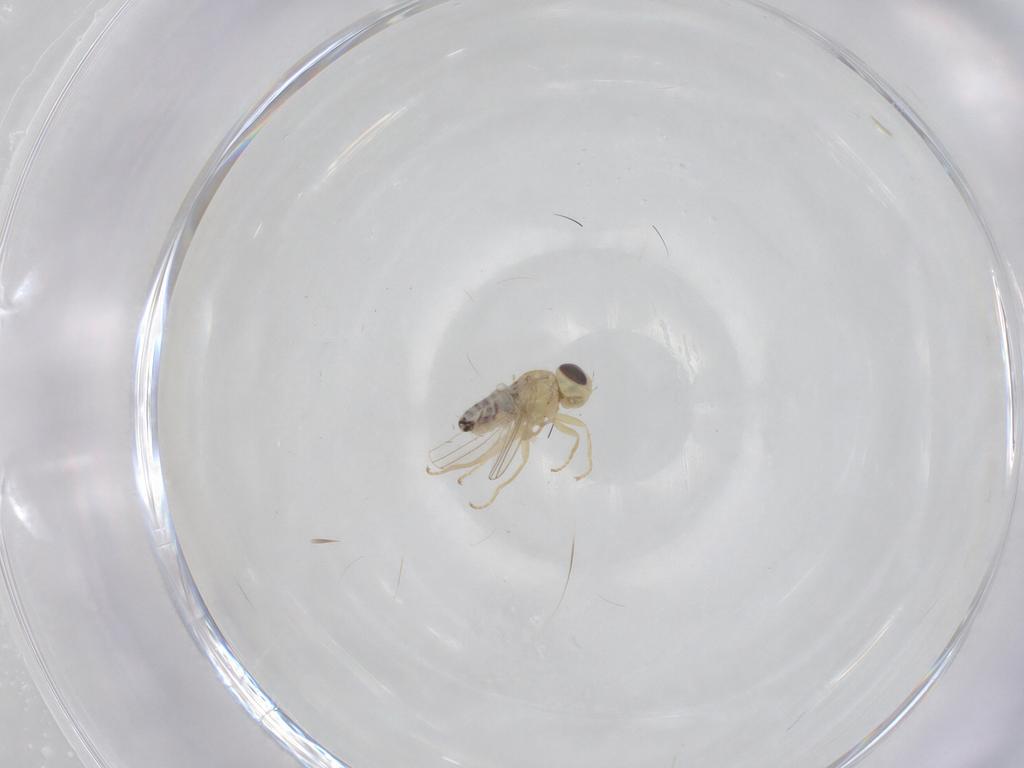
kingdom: Animalia
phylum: Arthropoda
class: Insecta
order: Diptera
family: Chloropidae
